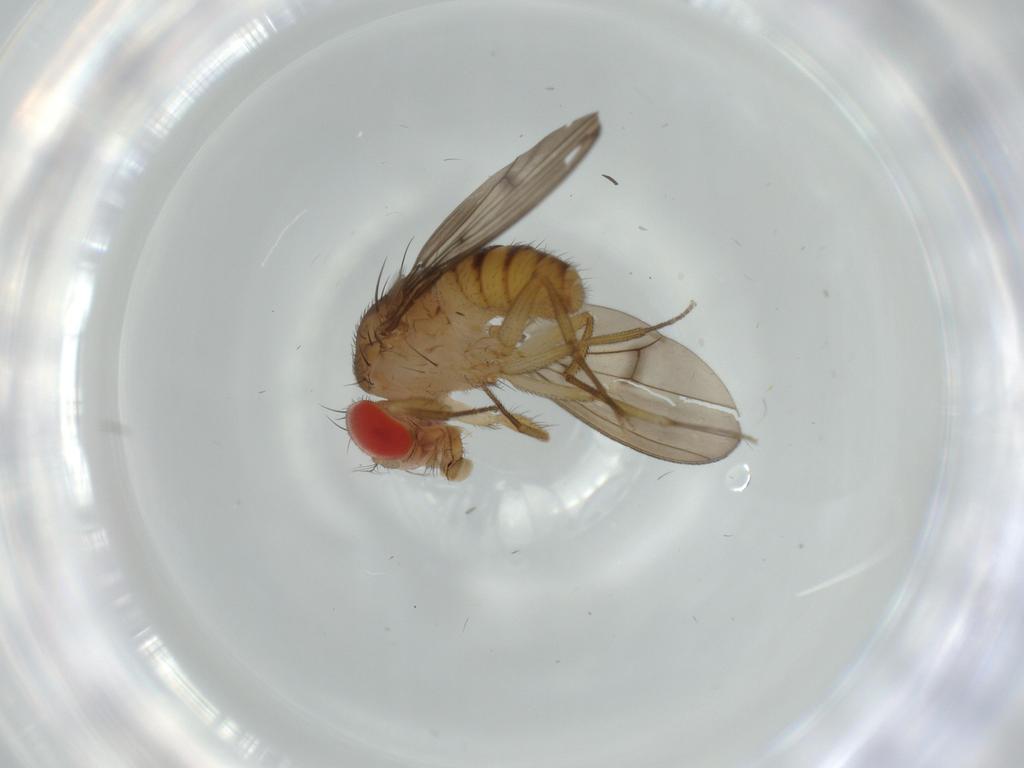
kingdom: Animalia
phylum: Arthropoda
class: Insecta
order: Diptera
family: Drosophilidae
